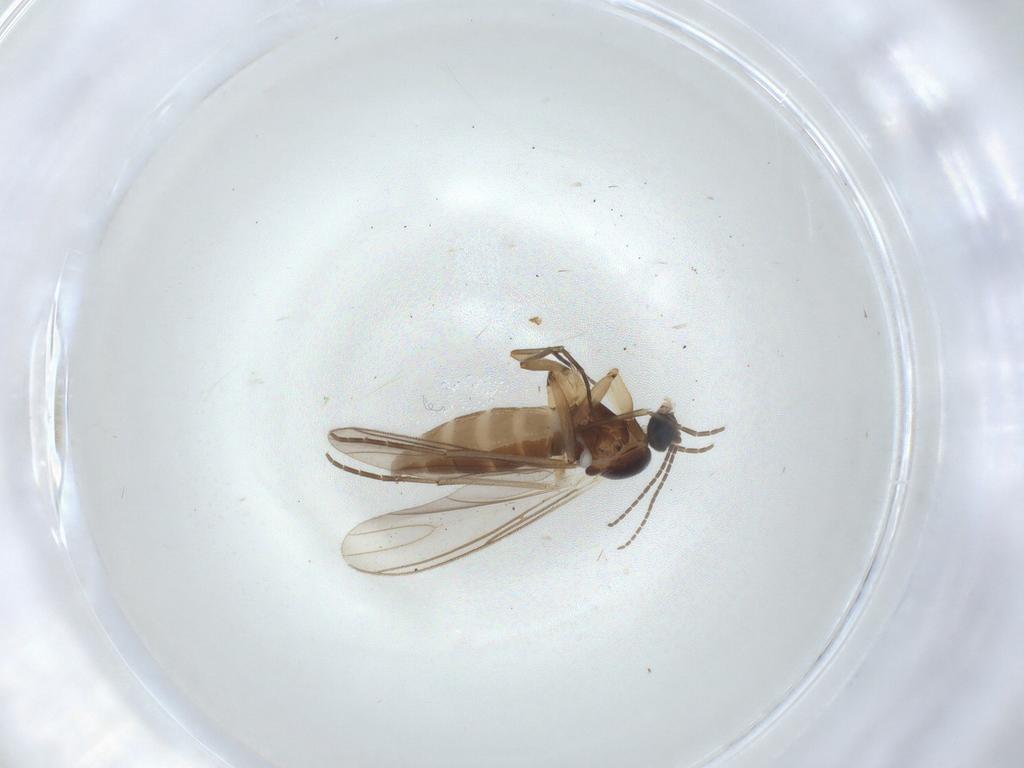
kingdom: Animalia
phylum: Arthropoda
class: Insecta
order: Diptera
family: Sciaridae
